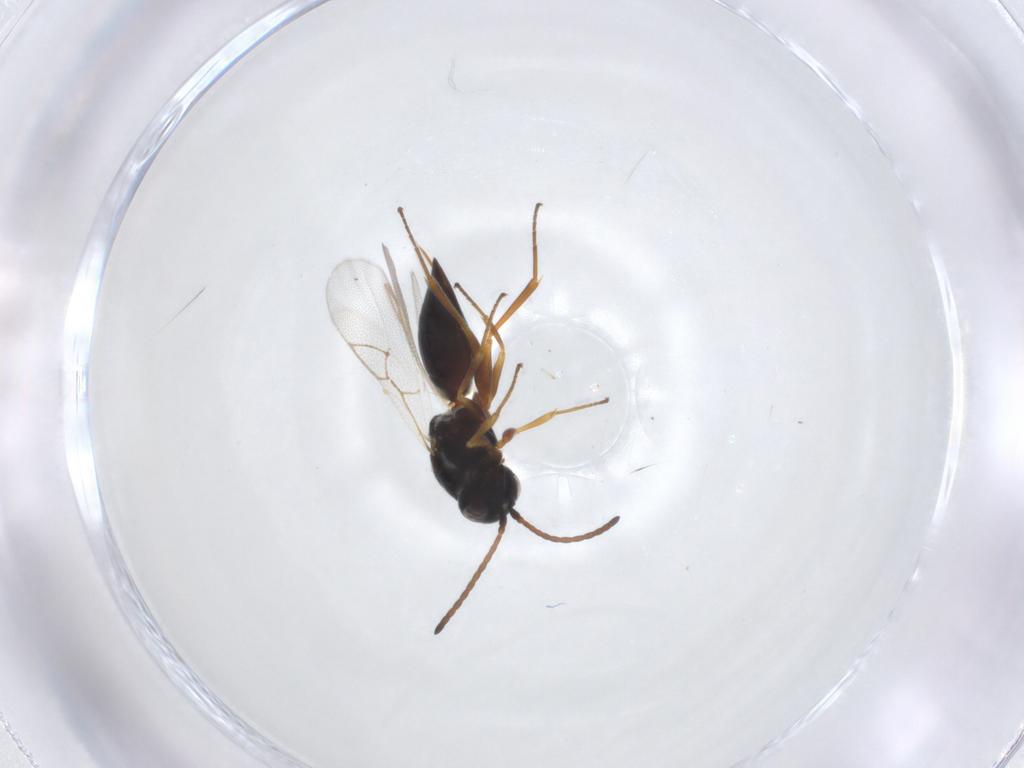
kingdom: Animalia
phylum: Arthropoda
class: Insecta
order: Hymenoptera
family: Figitidae
